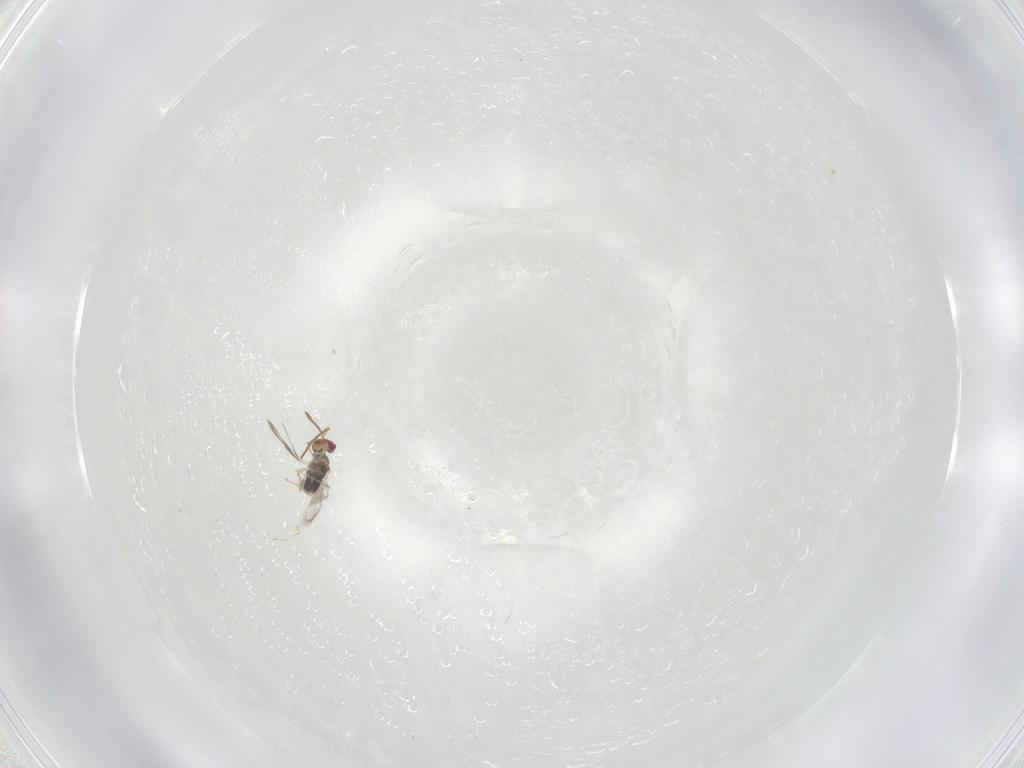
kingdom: Animalia
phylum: Arthropoda
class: Insecta
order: Hymenoptera
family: Azotidae
